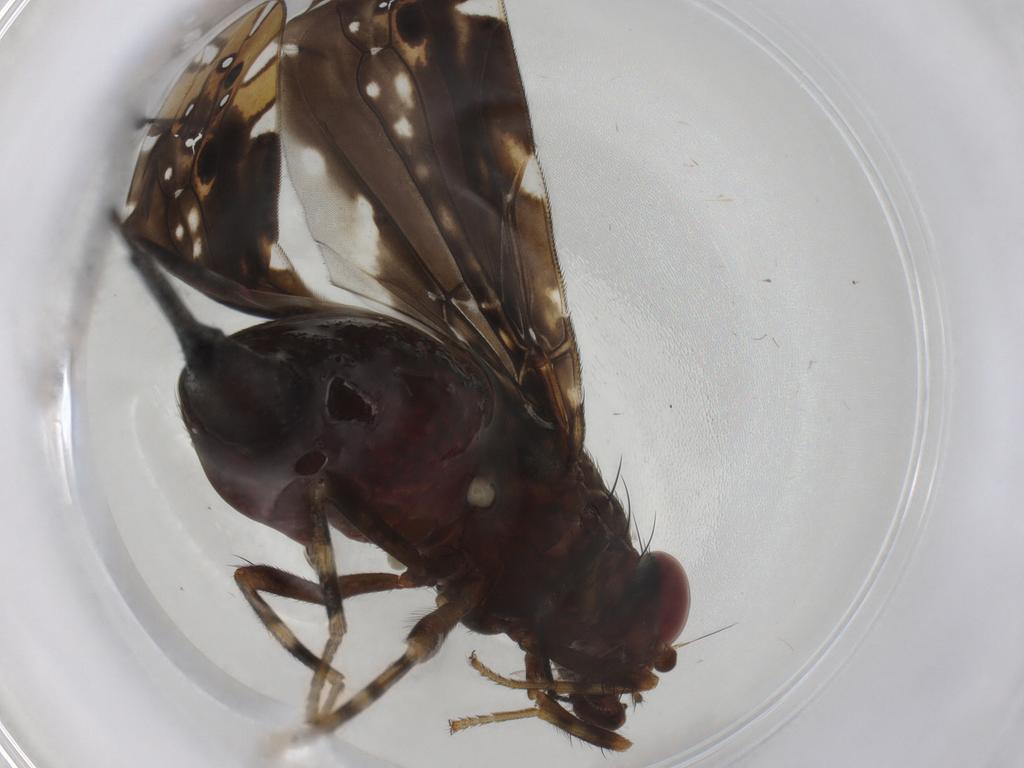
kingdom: Animalia
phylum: Arthropoda
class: Insecta
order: Diptera
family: Limoniidae
